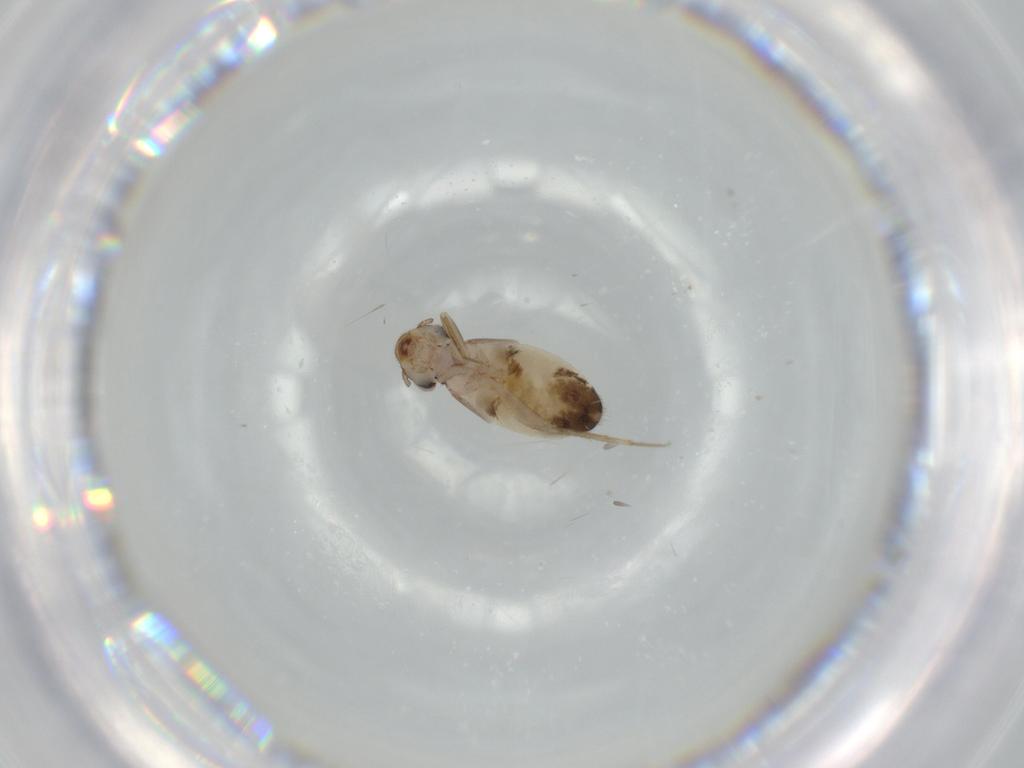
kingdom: Animalia
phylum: Arthropoda
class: Insecta
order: Psocodea
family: Lepidopsocidae
